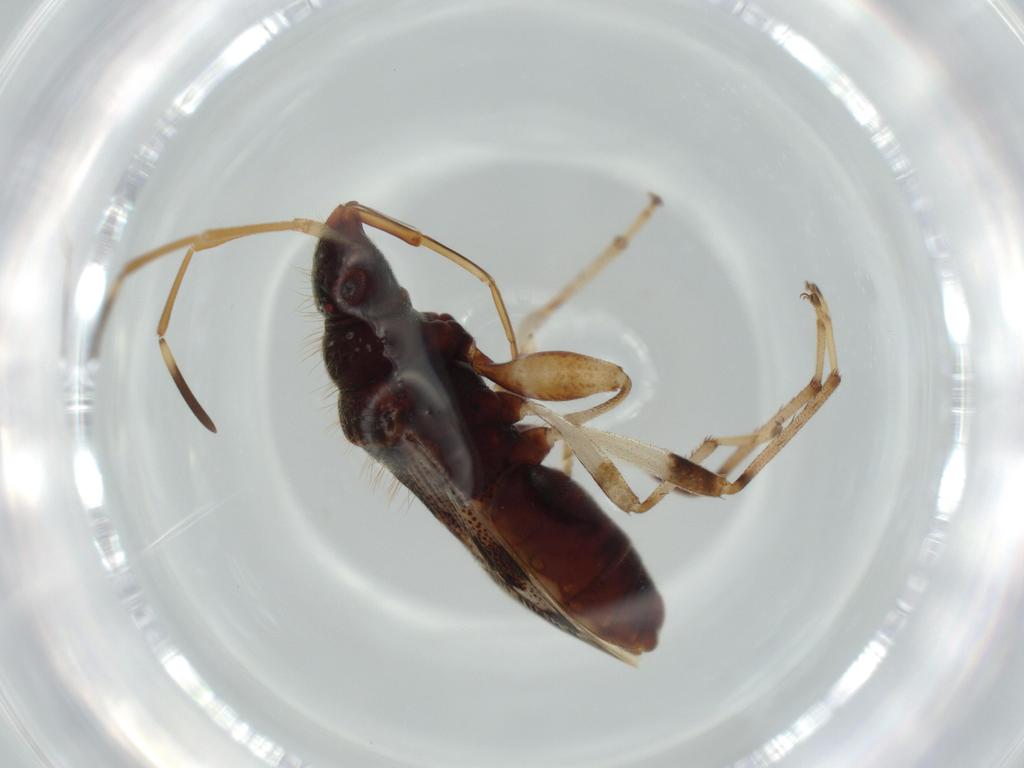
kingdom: Animalia
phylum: Arthropoda
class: Insecta
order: Hemiptera
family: Rhyparochromidae
